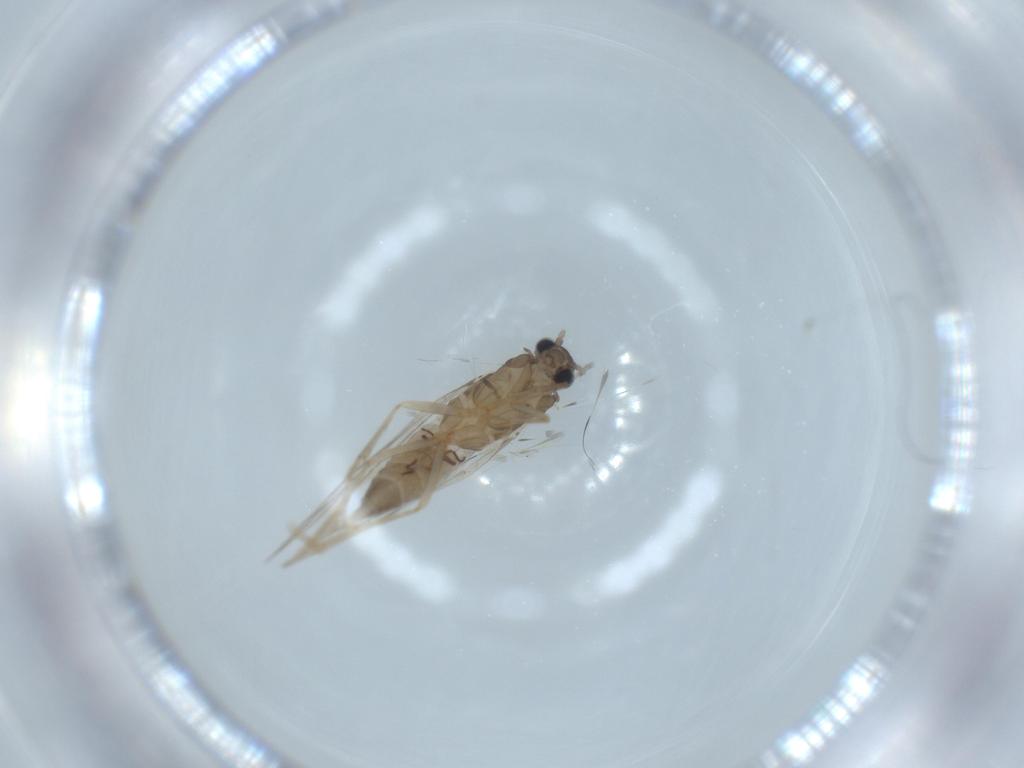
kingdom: Animalia
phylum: Arthropoda
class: Insecta
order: Trichoptera
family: Hydroptilidae
